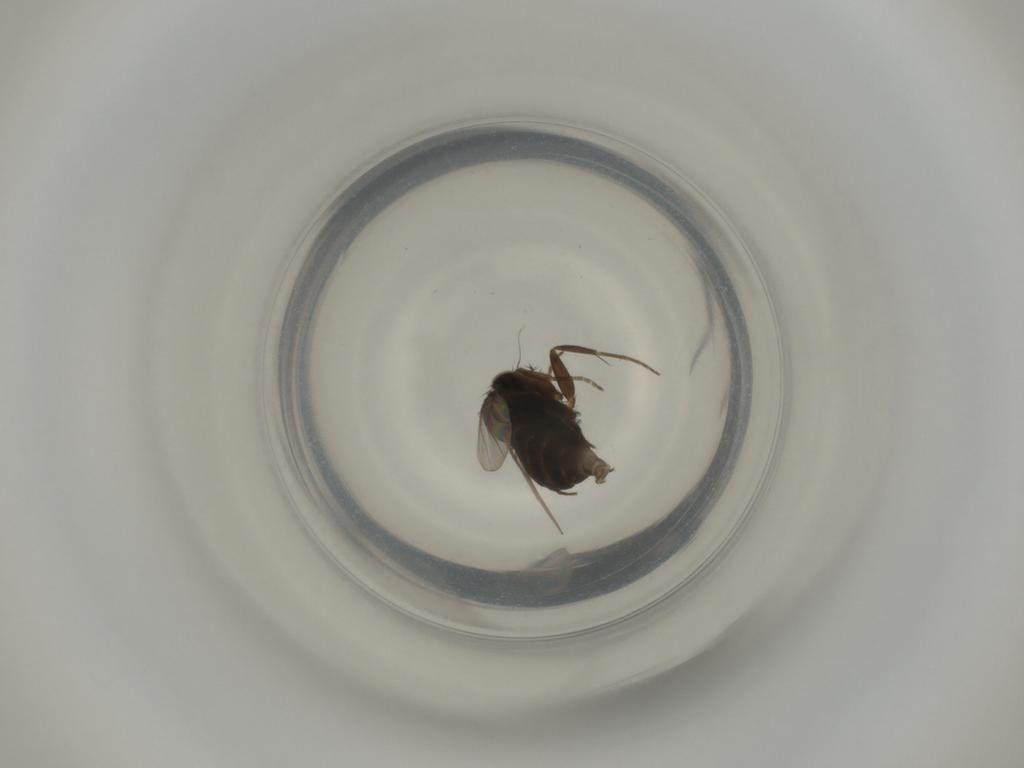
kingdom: Animalia
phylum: Arthropoda
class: Insecta
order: Diptera
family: Phoridae
